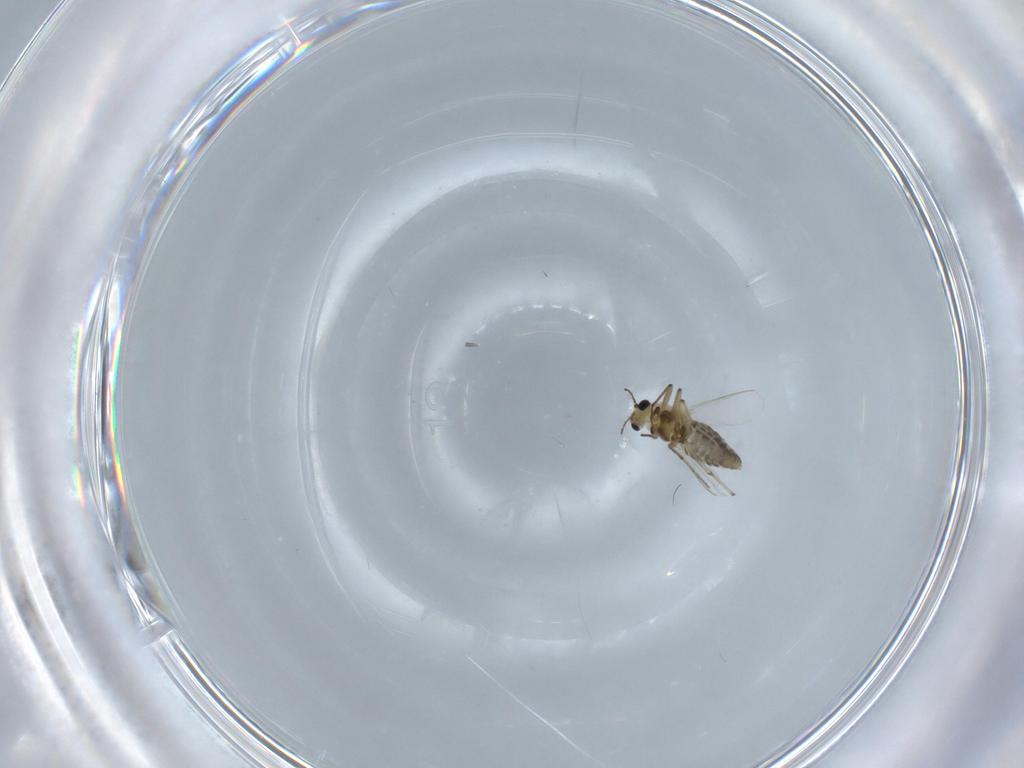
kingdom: Animalia
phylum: Arthropoda
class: Insecta
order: Diptera
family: Chironomidae
